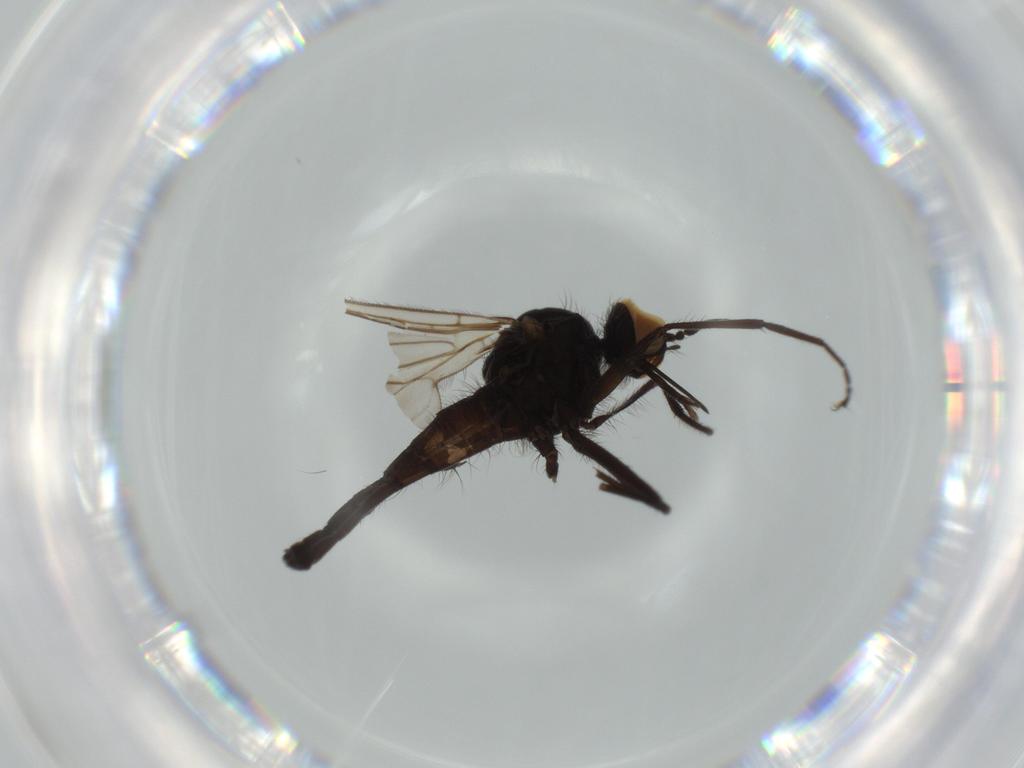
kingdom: Animalia
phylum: Arthropoda
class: Insecta
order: Diptera
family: Empididae
